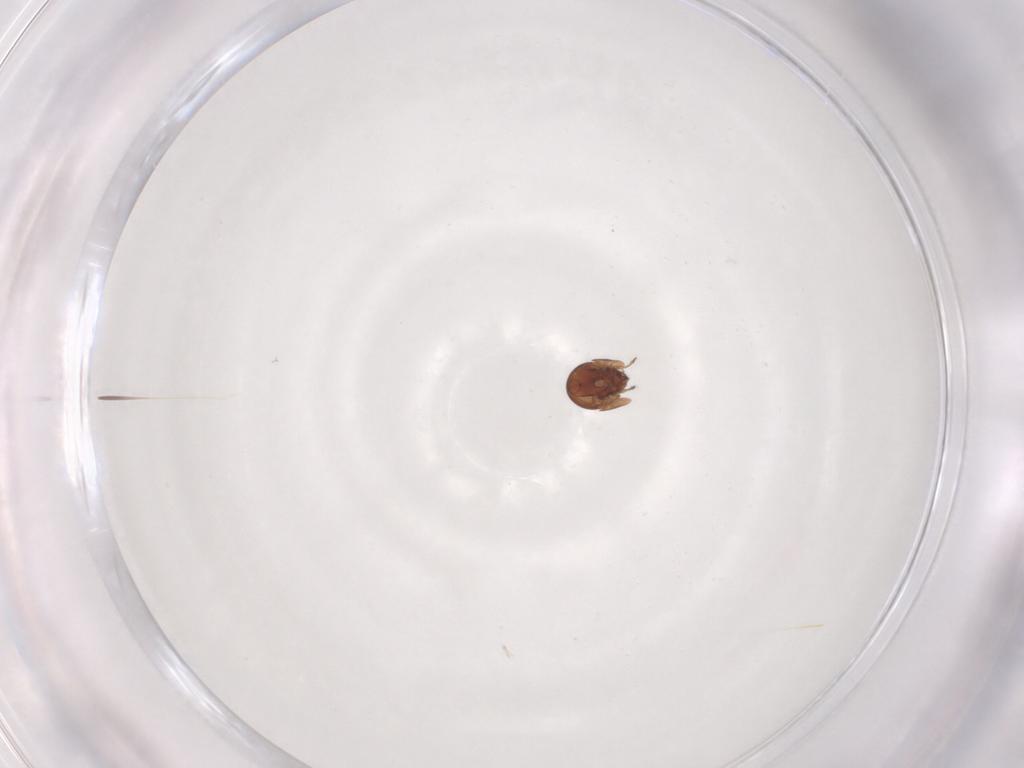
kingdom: Animalia
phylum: Arthropoda
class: Arachnida
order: Sarcoptiformes
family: Galumnidae
